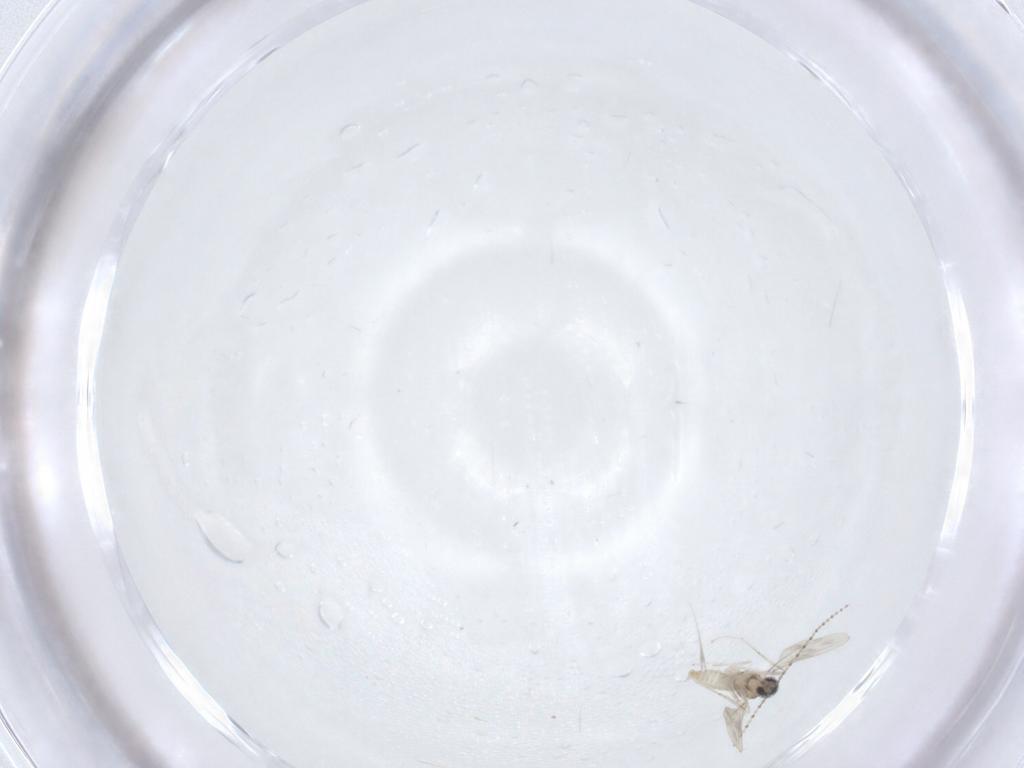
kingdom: Animalia
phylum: Arthropoda
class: Insecta
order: Diptera
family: Cecidomyiidae
